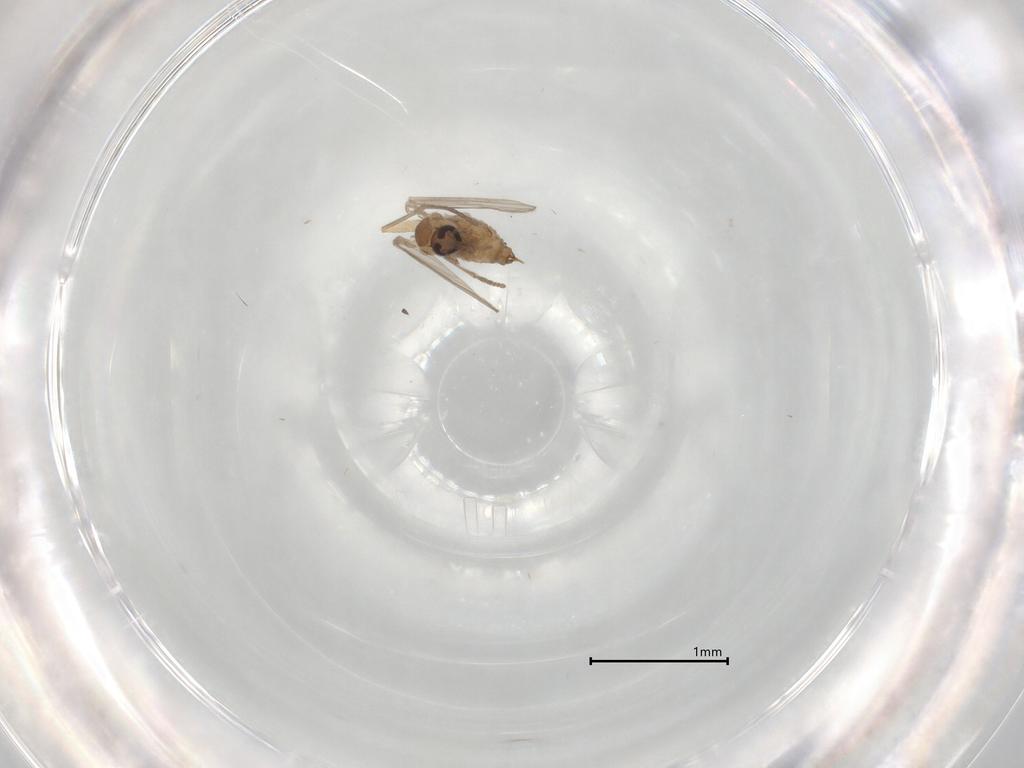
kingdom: Animalia
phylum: Arthropoda
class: Insecta
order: Diptera
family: Psychodidae
